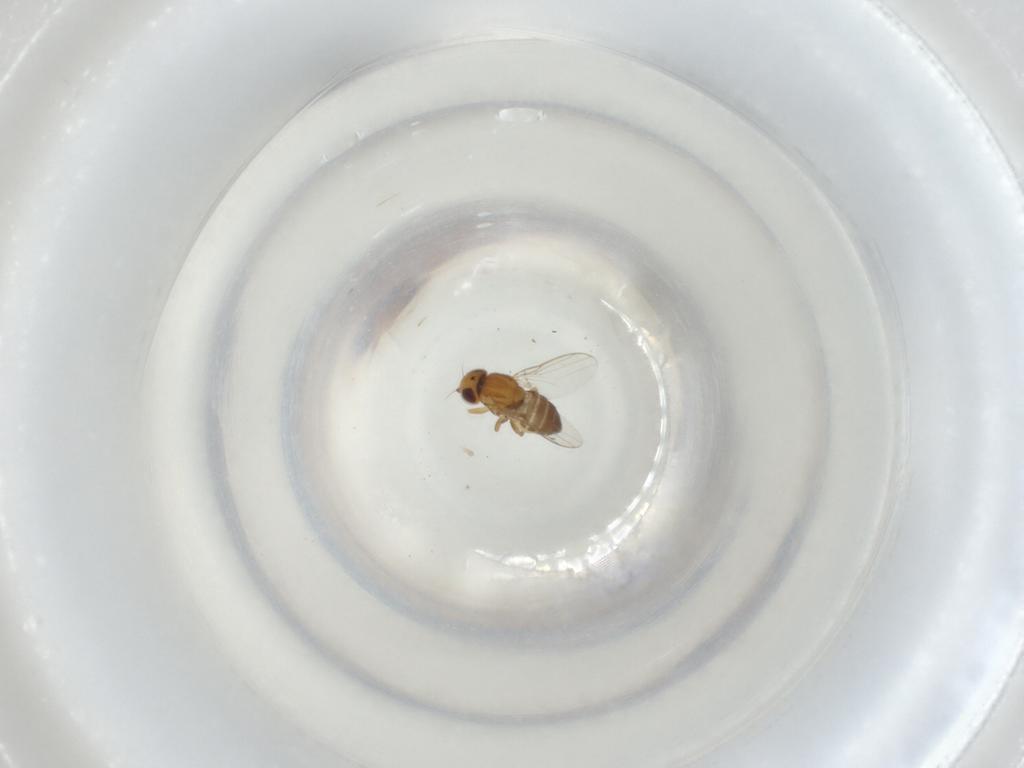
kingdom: Animalia
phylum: Arthropoda
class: Insecta
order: Diptera
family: Chloropidae
